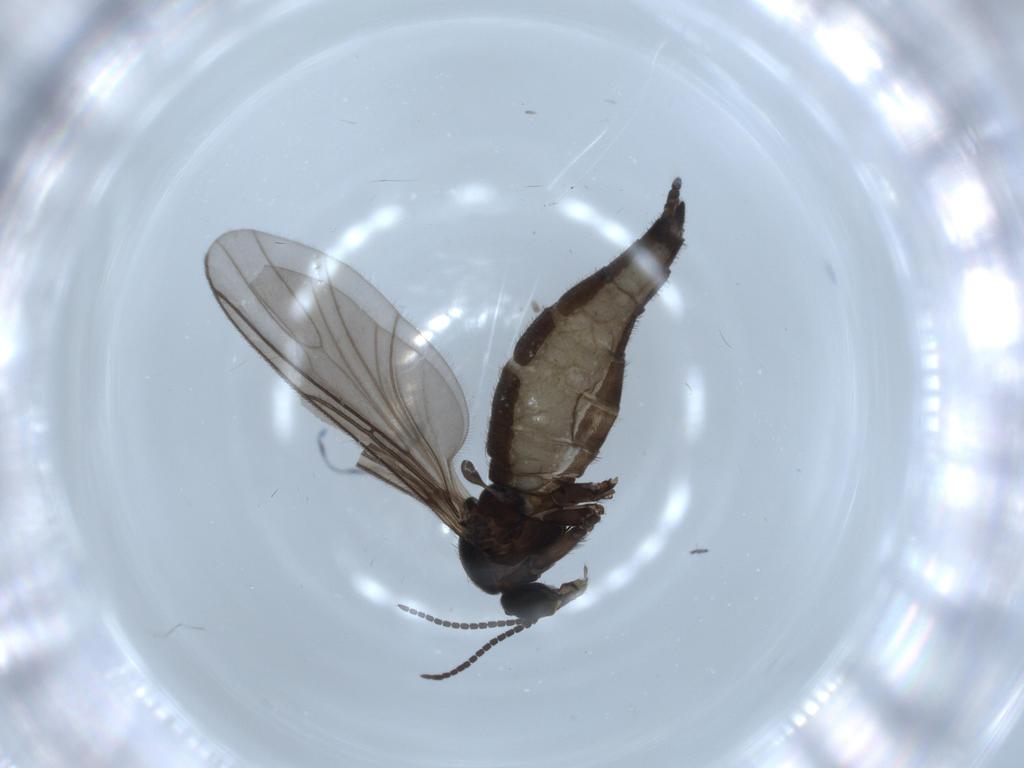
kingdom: Animalia
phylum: Arthropoda
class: Insecta
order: Diptera
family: Sciaridae
